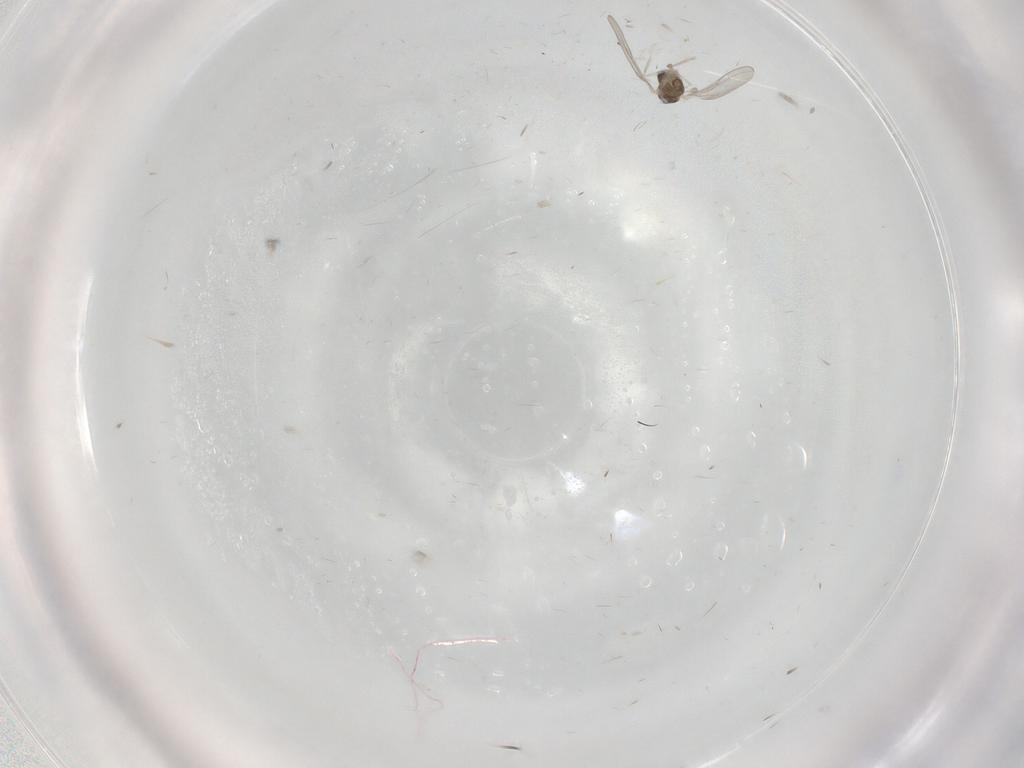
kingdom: Animalia
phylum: Arthropoda
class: Insecta
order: Diptera
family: Cecidomyiidae
